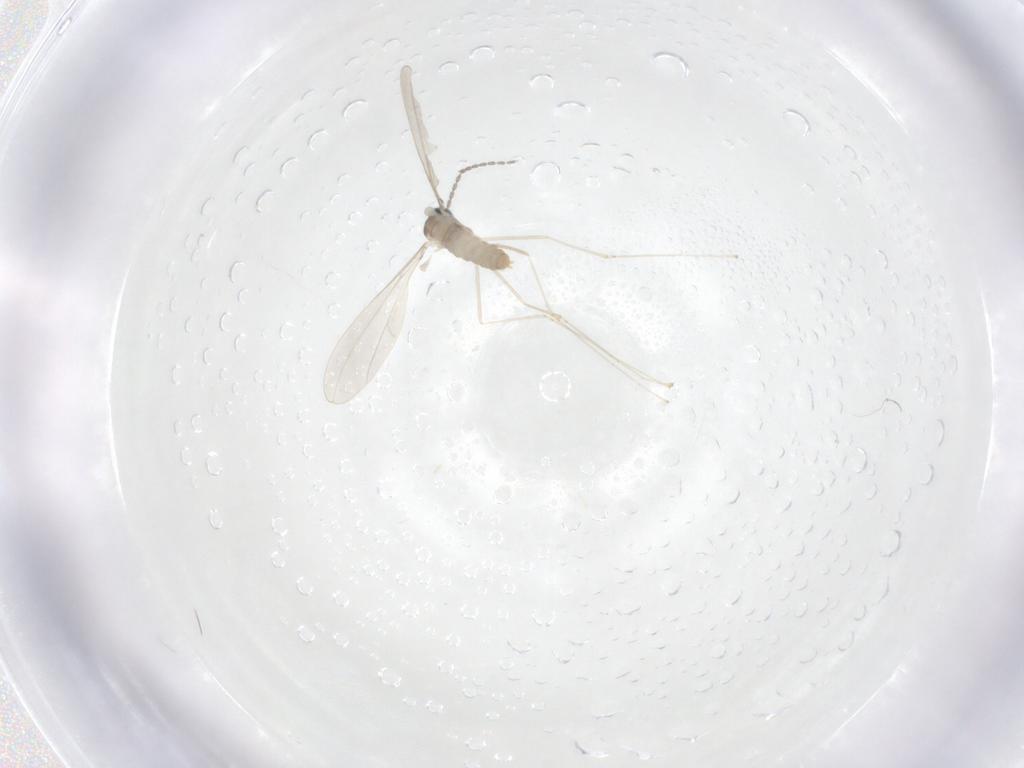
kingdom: Animalia
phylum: Arthropoda
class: Insecta
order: Diptera
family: Cecidomyiidae
